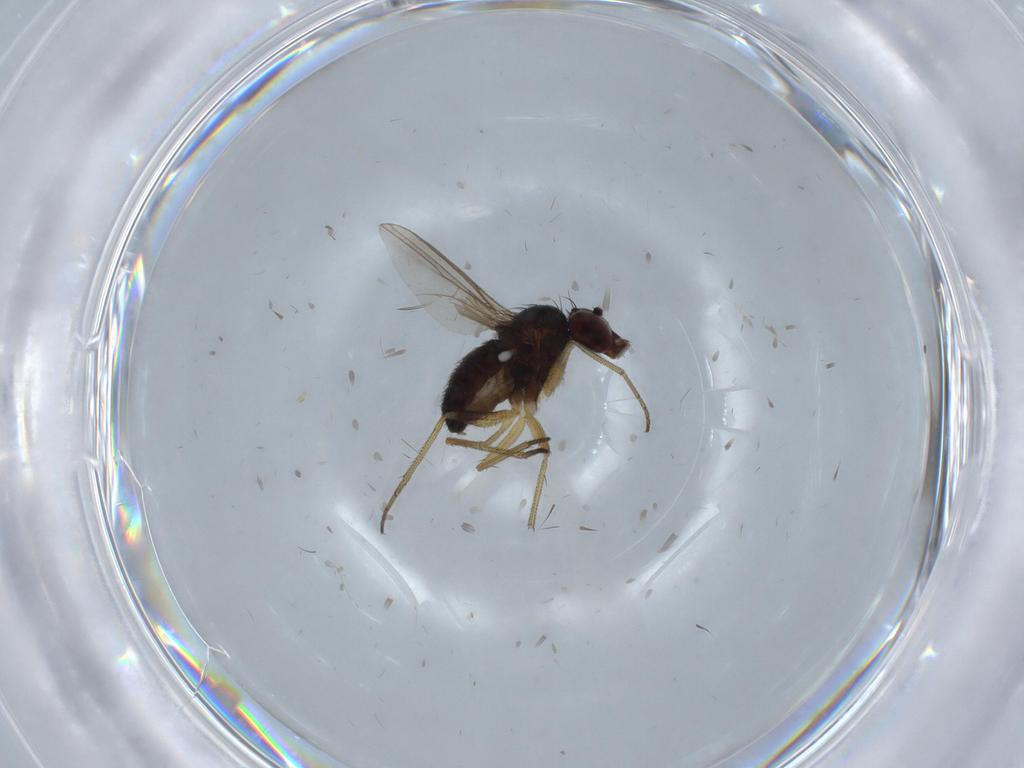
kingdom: Animalia
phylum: Arthropoda
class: Insecta
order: Diptera
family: Dolichopodidae
